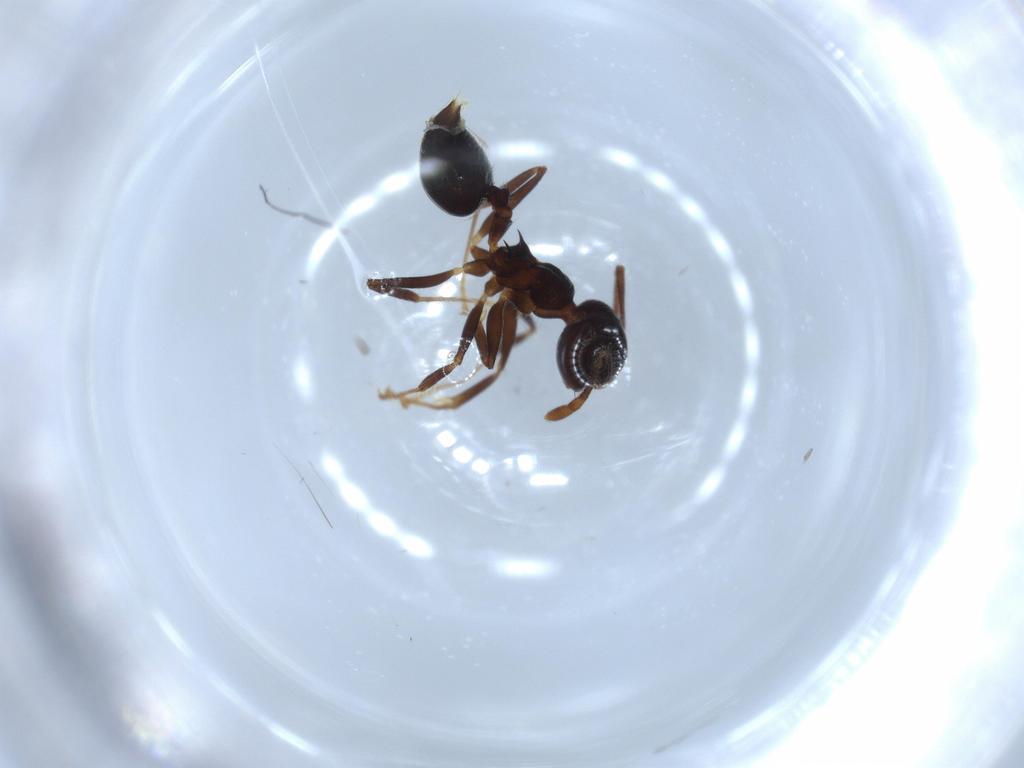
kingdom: Animalia
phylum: Arthropoda
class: Insecta
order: Hymenoptera
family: Formicidae
